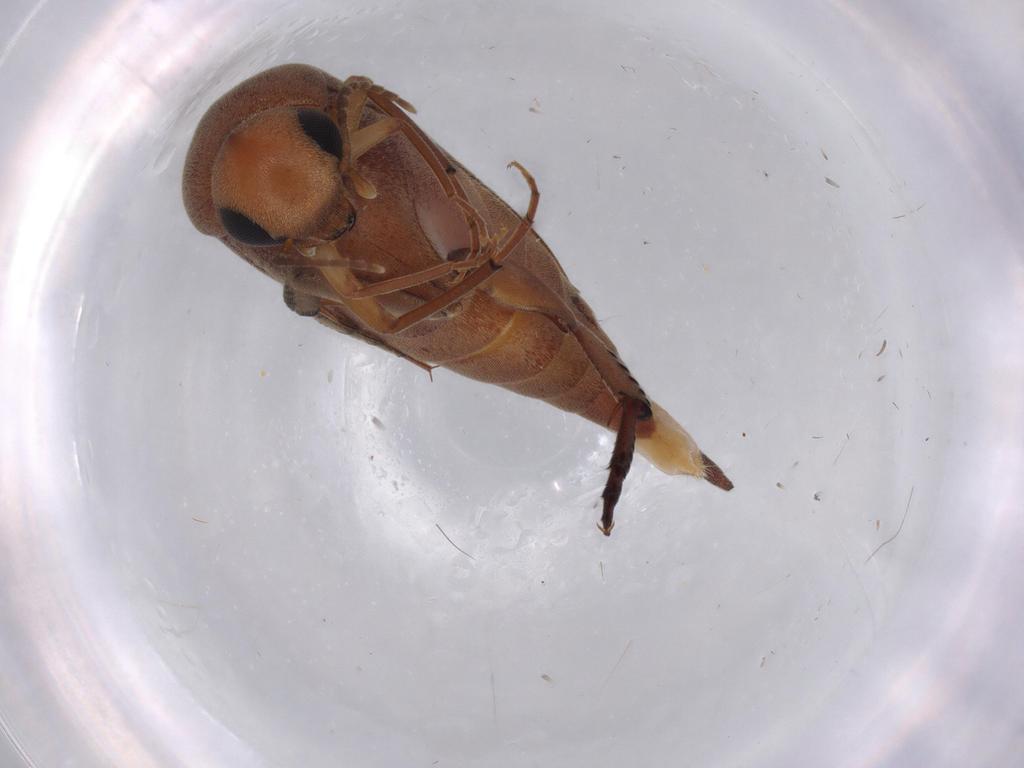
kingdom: Animalia
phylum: Arthropoda
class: Insecta
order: Coleoptera
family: Mordellidae
